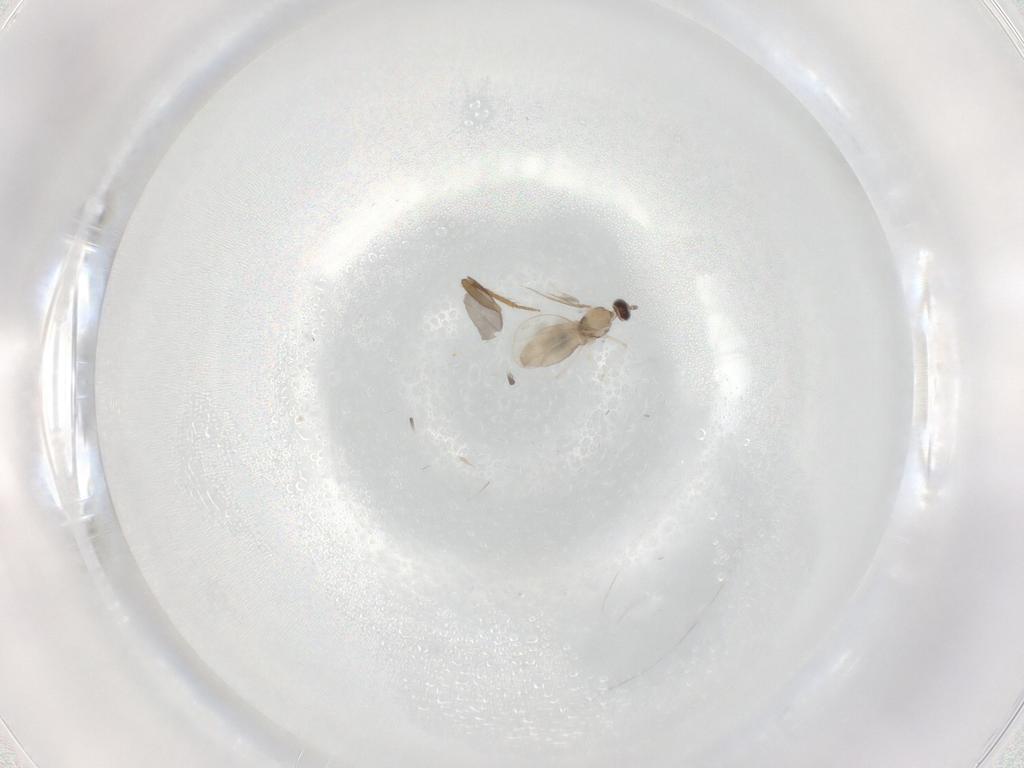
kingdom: Animalia
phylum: Arthropoda
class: Insecta
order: Diptera
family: Cecidomyiidae
